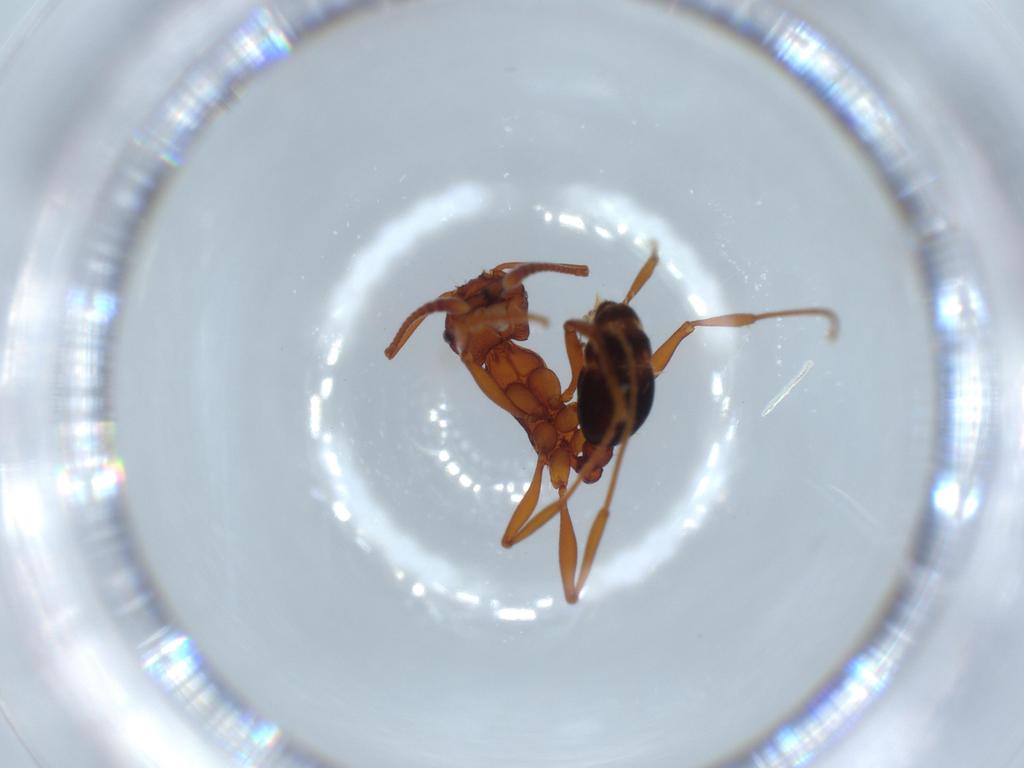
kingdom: Animalia
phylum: Arthropoda
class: Insecta
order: Hymenoptera
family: Formicidae
